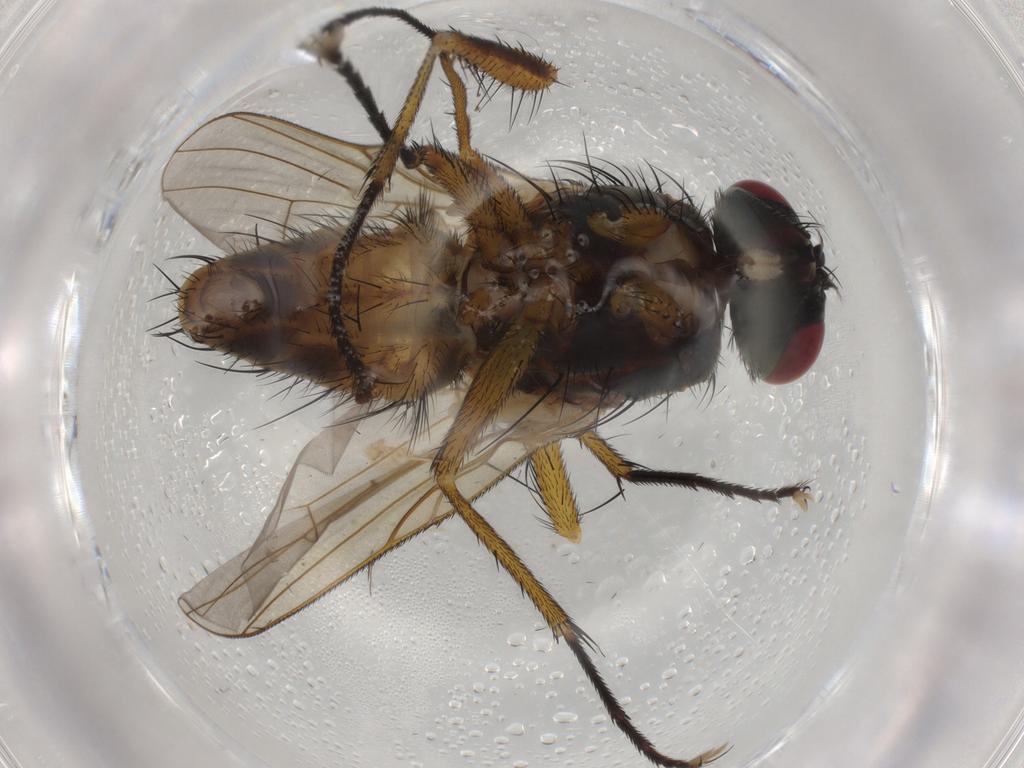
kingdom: Animalia
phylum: Arthropoda
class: Insecta
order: Diptera
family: Muscidae
